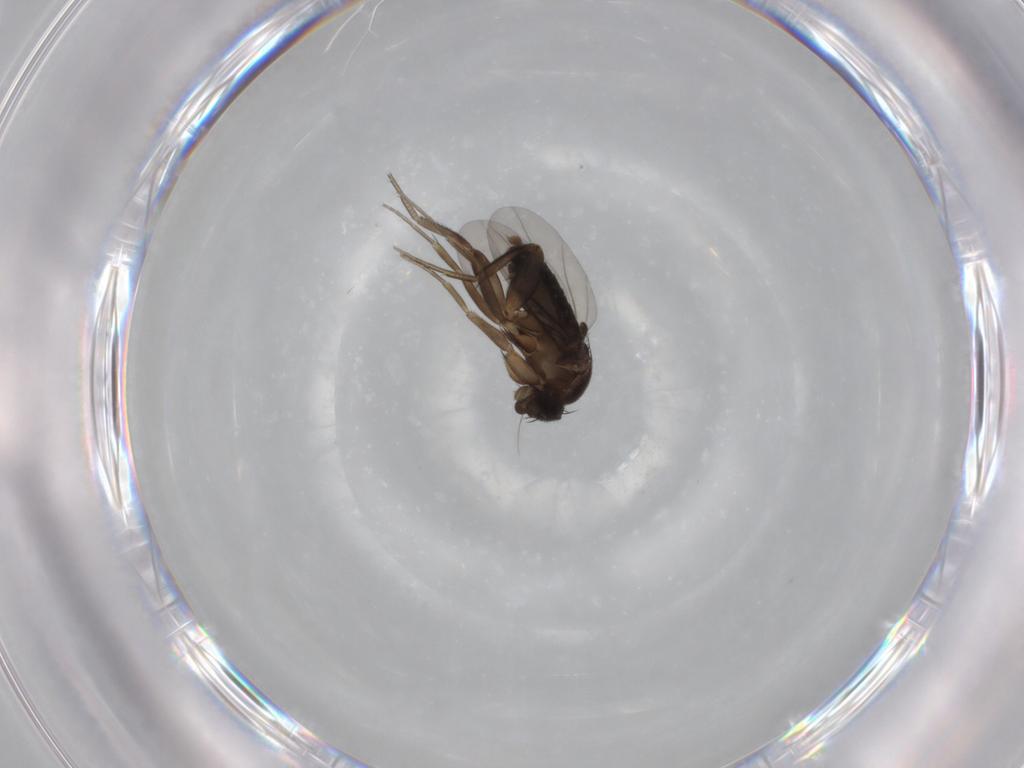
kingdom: Animalia
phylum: Arthropoda
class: Insecta
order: Diptera
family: Phoridae
